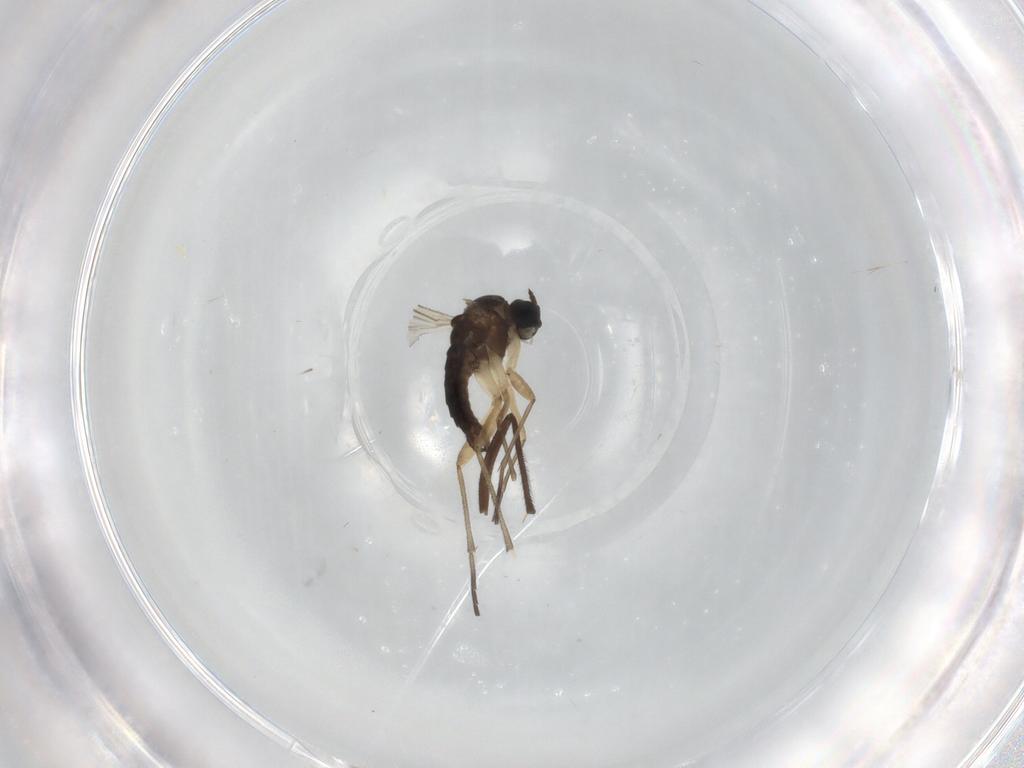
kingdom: Animalia
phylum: Arthropoda
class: Insecta
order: Diptera
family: Sciaridae
